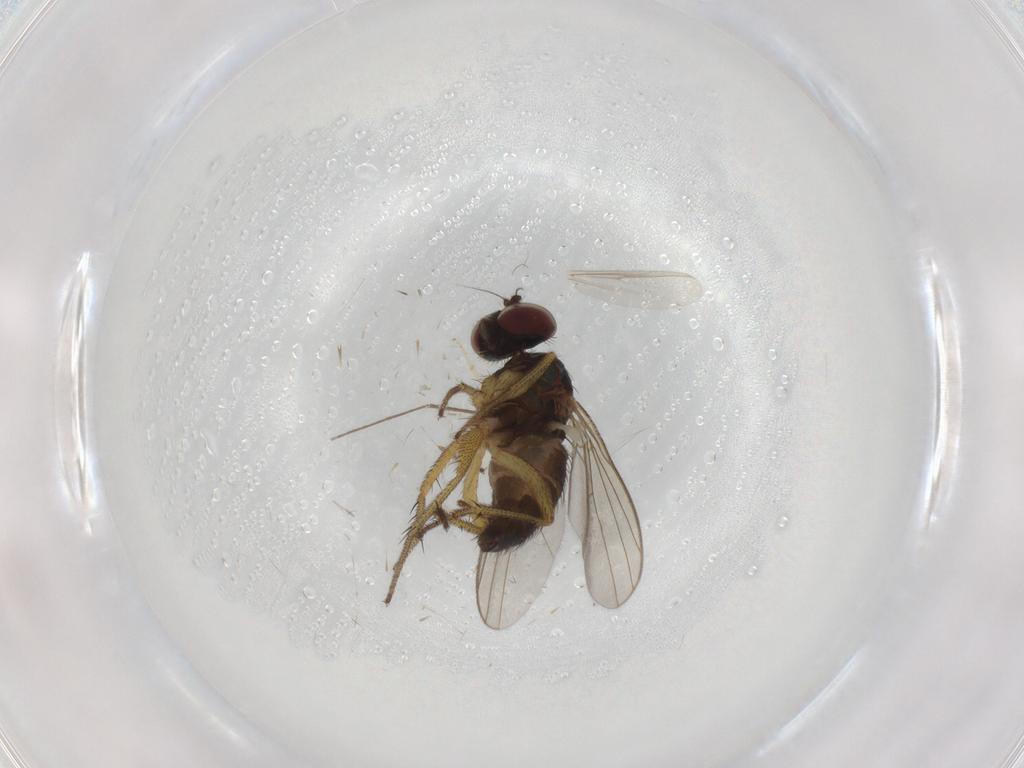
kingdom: Animalia
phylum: Arthropoda
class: Insecta
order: Diptera
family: Chironomidae
